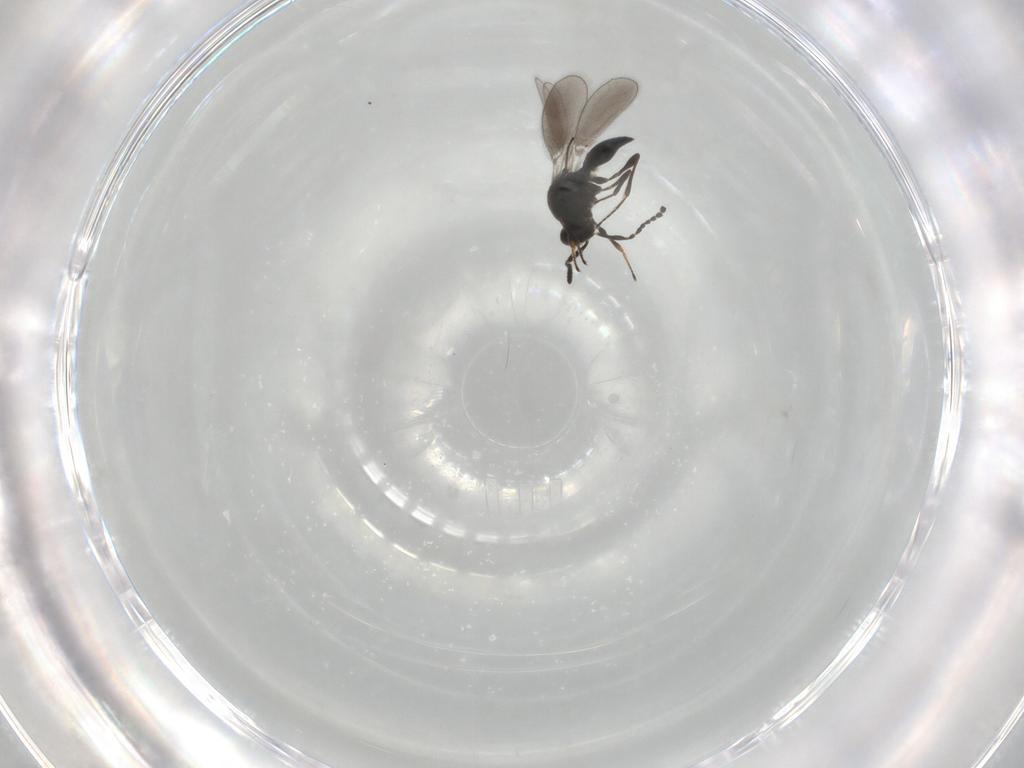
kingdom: Animalia
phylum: Arthropoda
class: Insecta
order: Hymenoptera
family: Platygastridae
